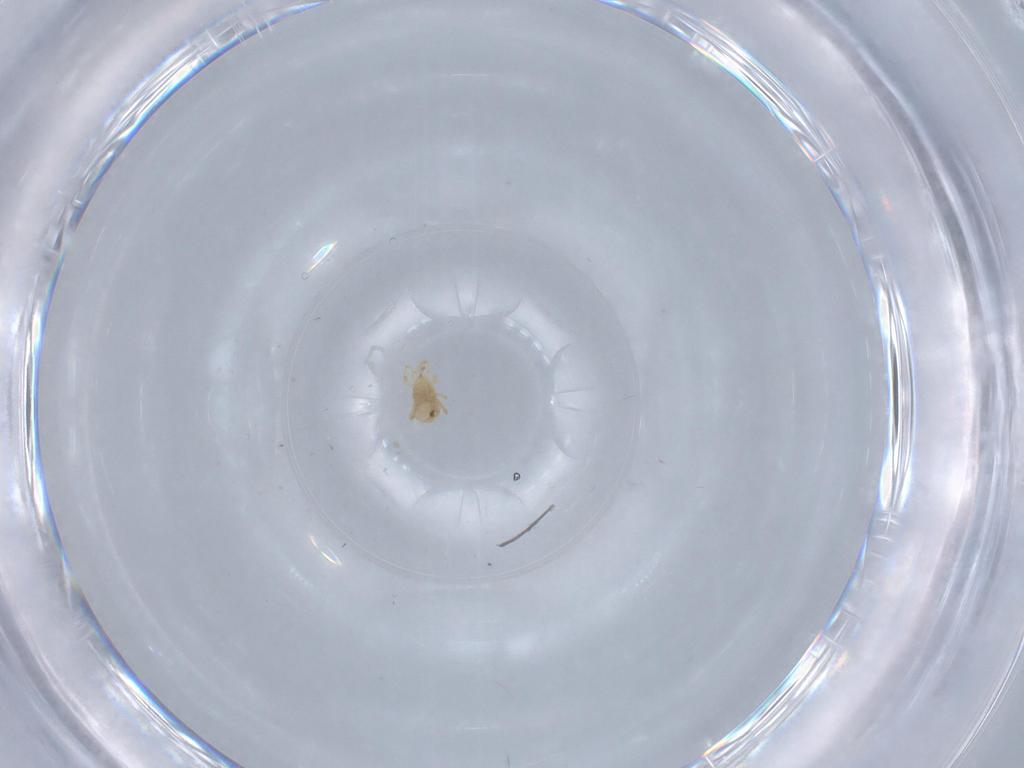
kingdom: Animalia
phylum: Arthropoda
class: Arachnida
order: Mesostigmata
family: Blattisociidae
